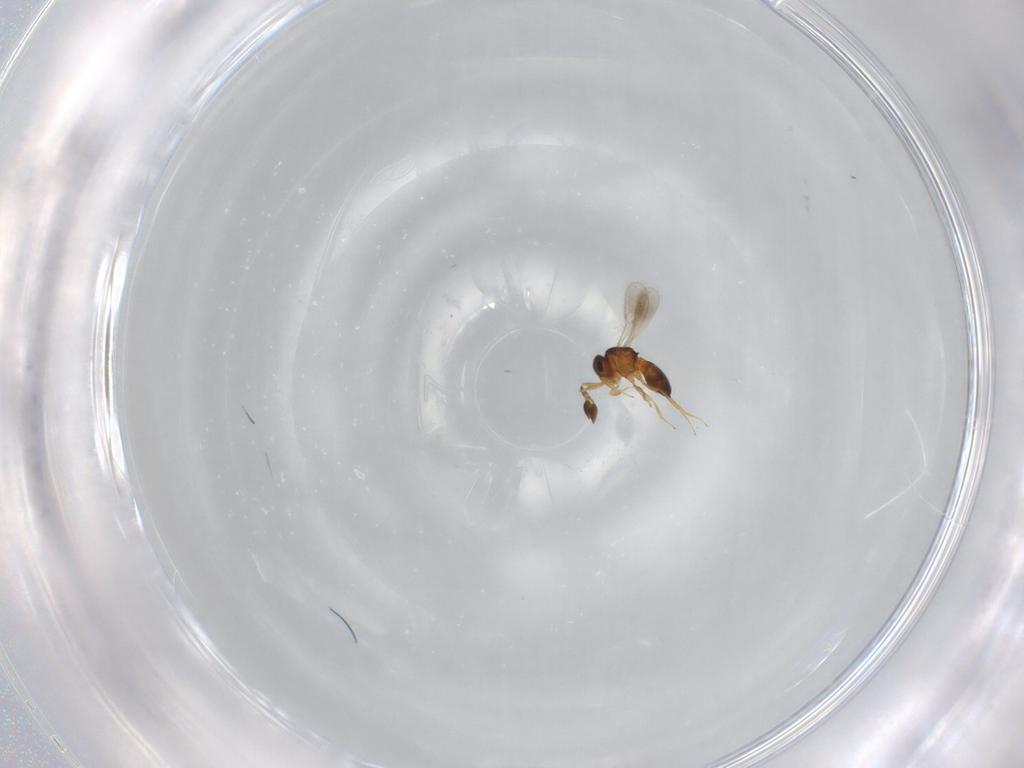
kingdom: Animalia
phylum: Arthropoda
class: Insecta
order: Hymenoptera
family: Scelionidae
